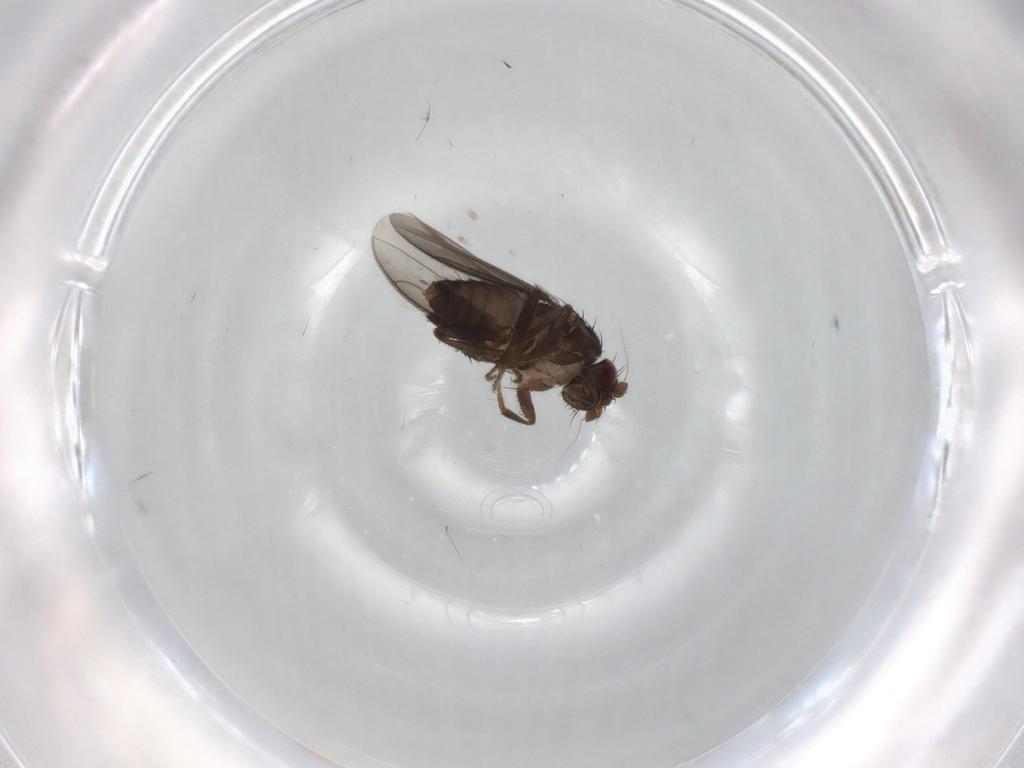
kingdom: Animalia
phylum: Arthropoda
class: Insecta
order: Diptera
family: Sphaeroceridae
